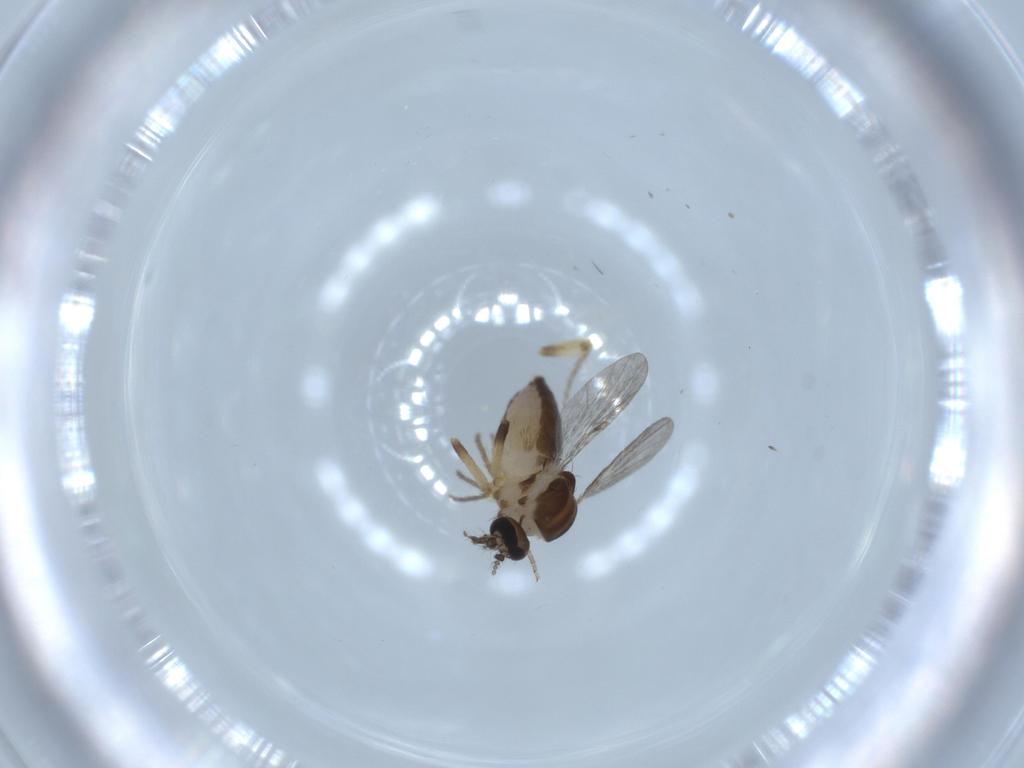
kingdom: Animalia
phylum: Arthropoda
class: Insecta
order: Diptera
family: Ceratopogonidae
